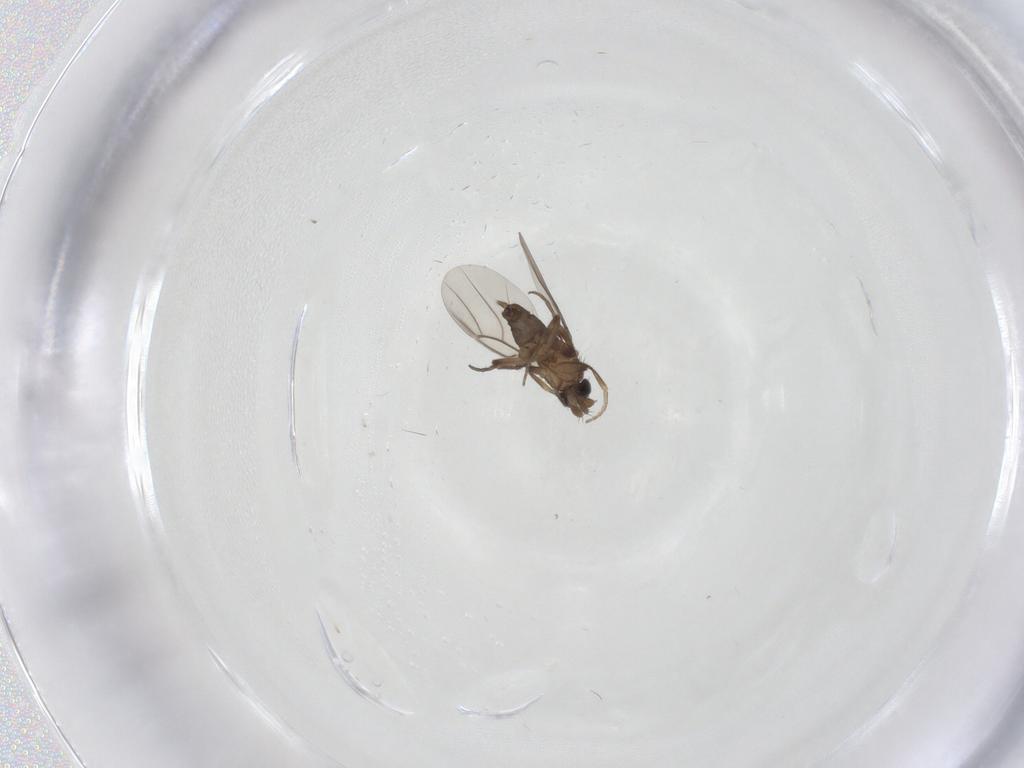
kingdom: Animalia
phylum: Arthropoda
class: Insecta
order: Diptera
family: Phoridae
